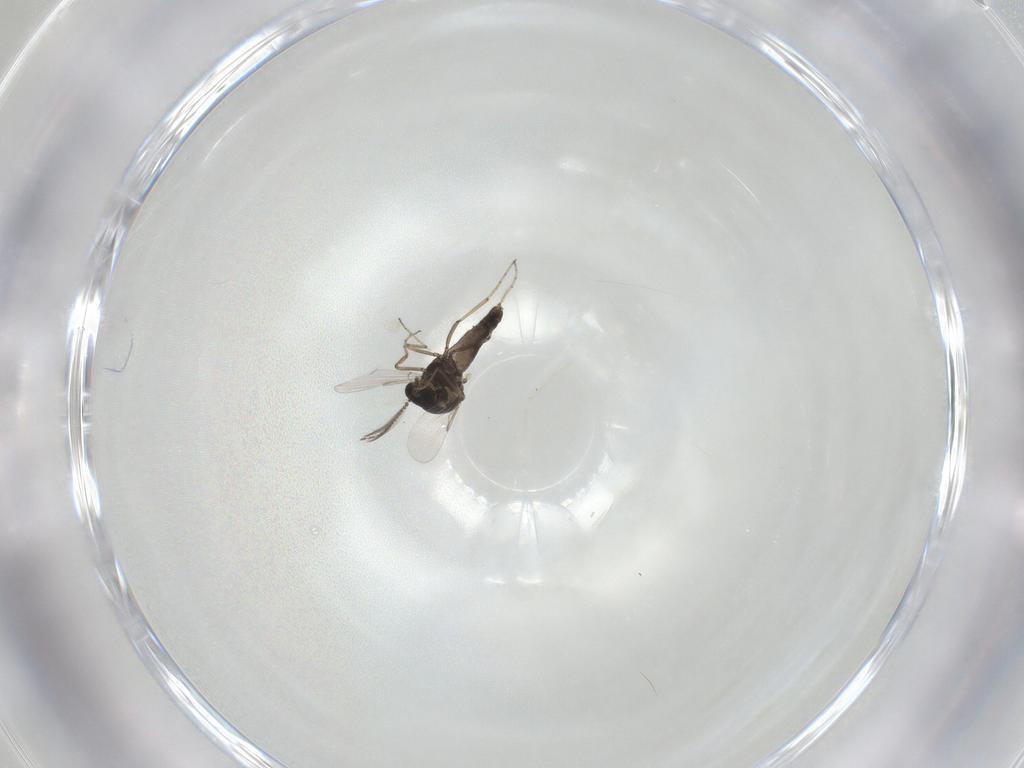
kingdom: Animalia
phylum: Arthropoda
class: Insecta
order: Diptera
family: Ceratopogonidae
